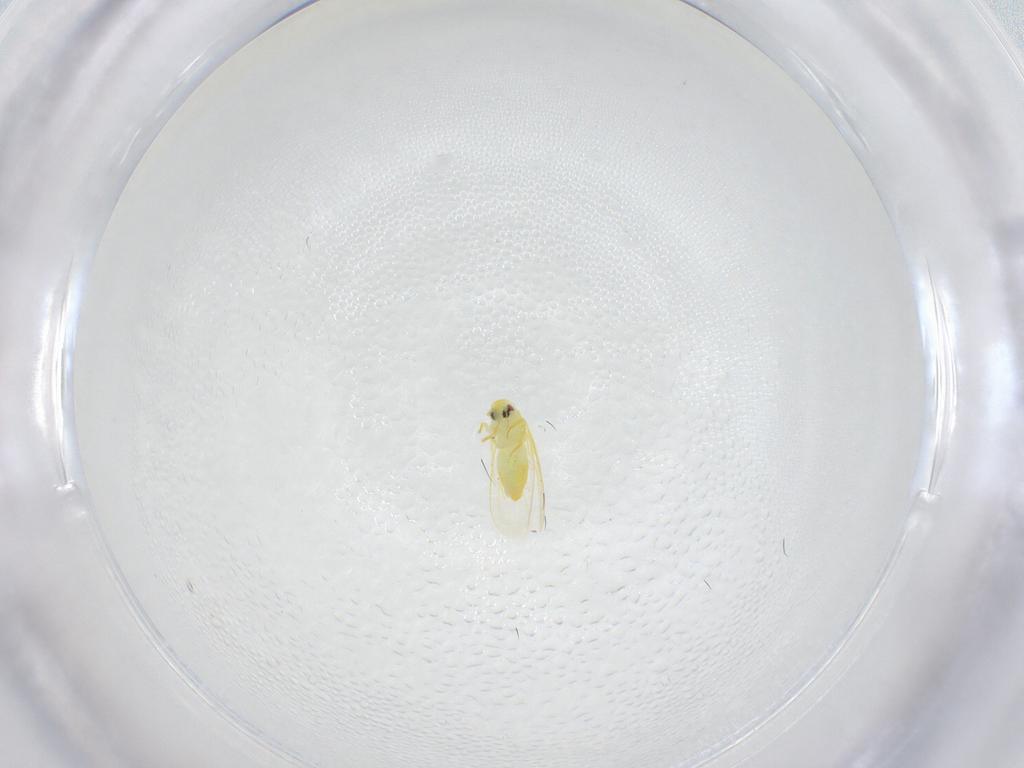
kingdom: Animalia
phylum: Arthropoda
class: Insecta
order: Hemiptera
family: Aleyrodidae
